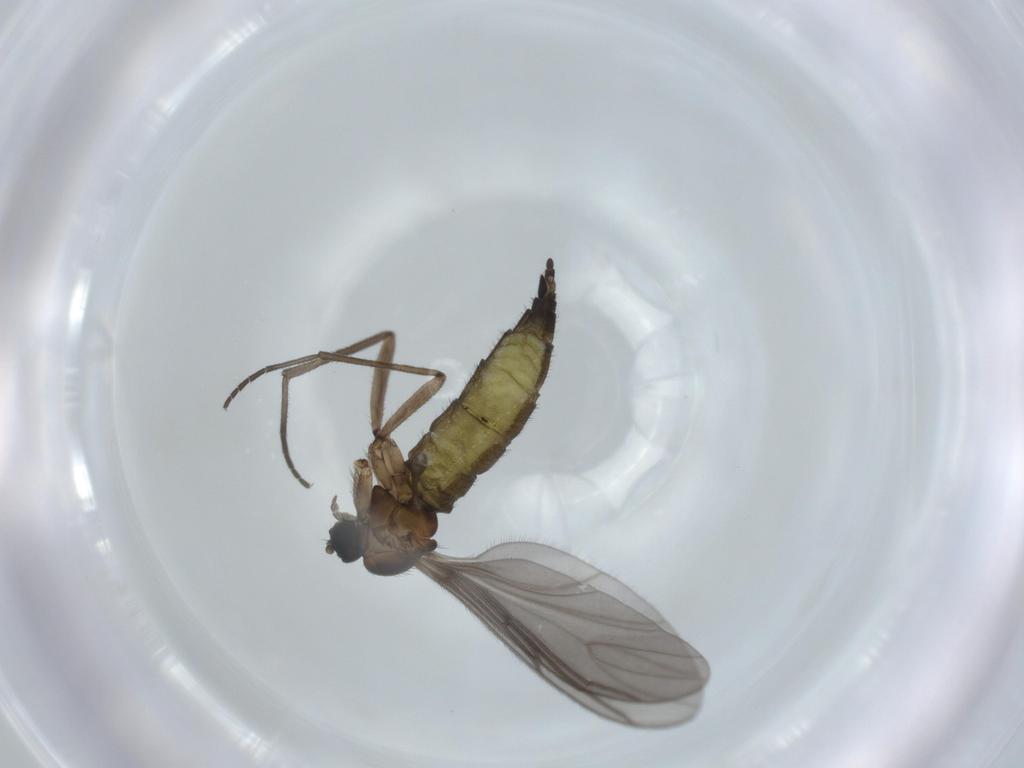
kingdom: Animalia
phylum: Arthropoda
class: Insecta
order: Diptera
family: Sciaridae
